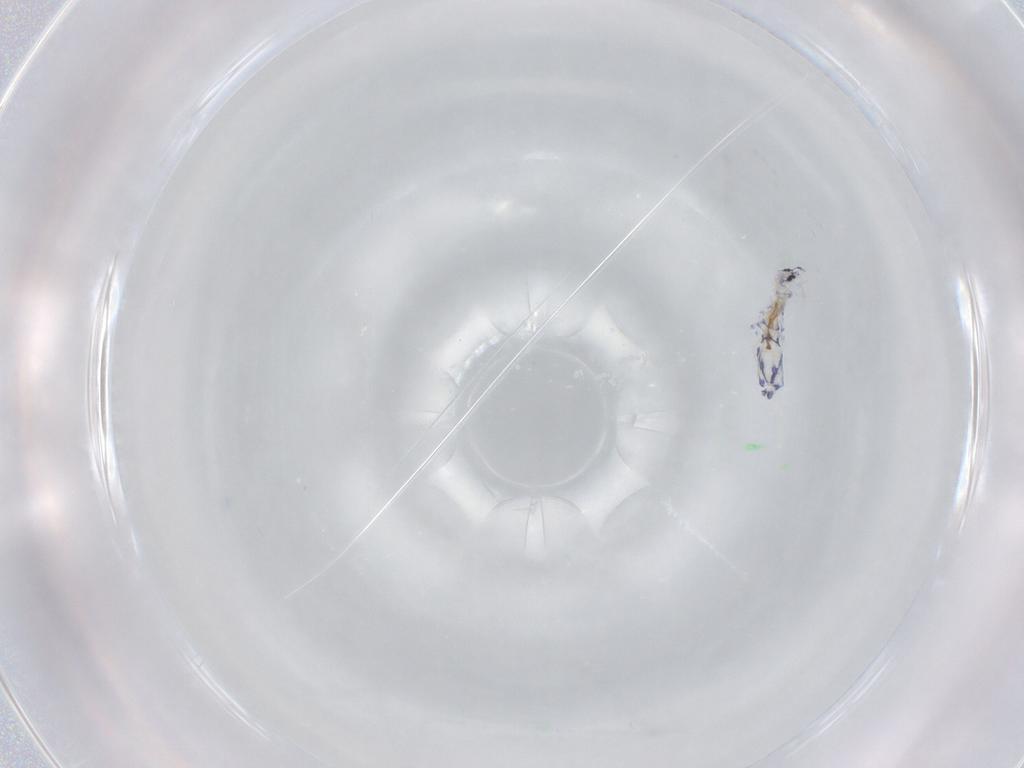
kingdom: Animalia
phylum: Arthropoda
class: Collembola
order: Entomobryomorpha
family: Entomobryidae
